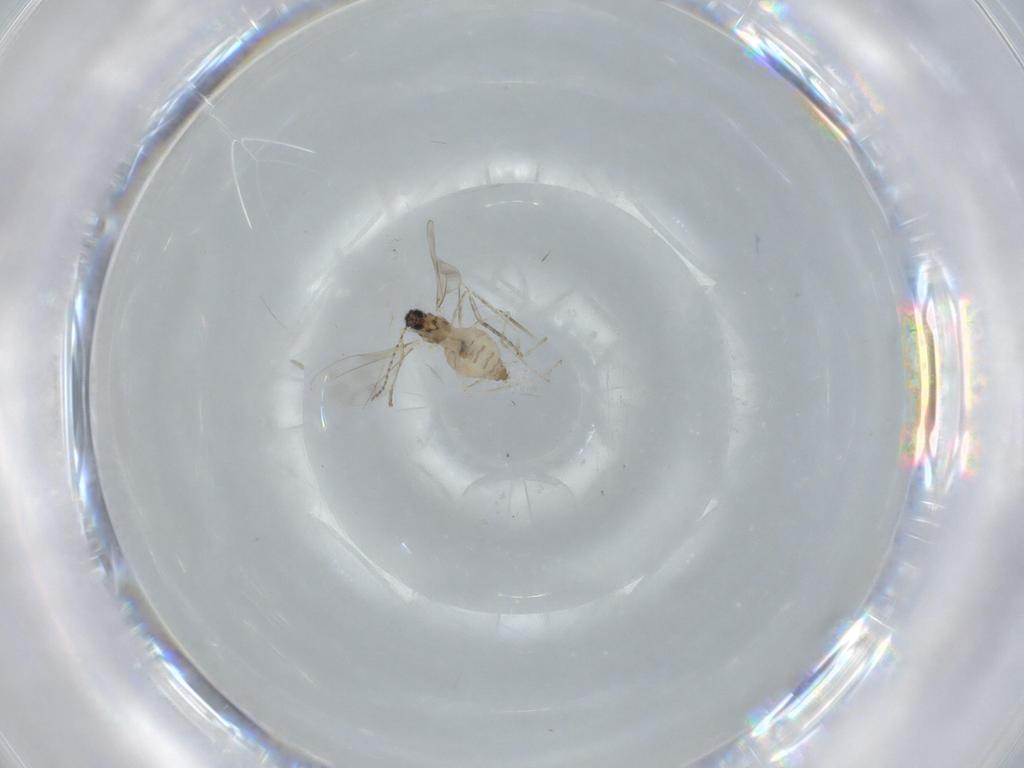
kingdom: Animalia
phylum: Arthropoda
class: Insecta
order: Diptera
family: Cecidomyiidae
